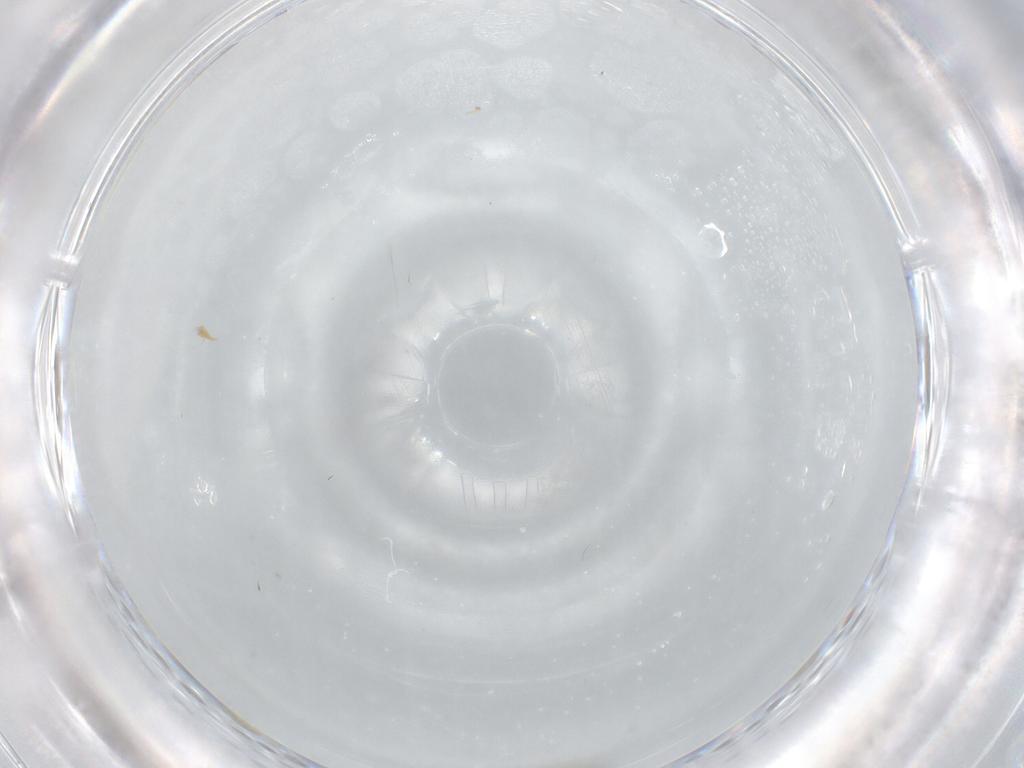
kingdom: Animalia
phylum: Arthropoda
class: Insecta
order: Diptera
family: Cecidomyiidae
